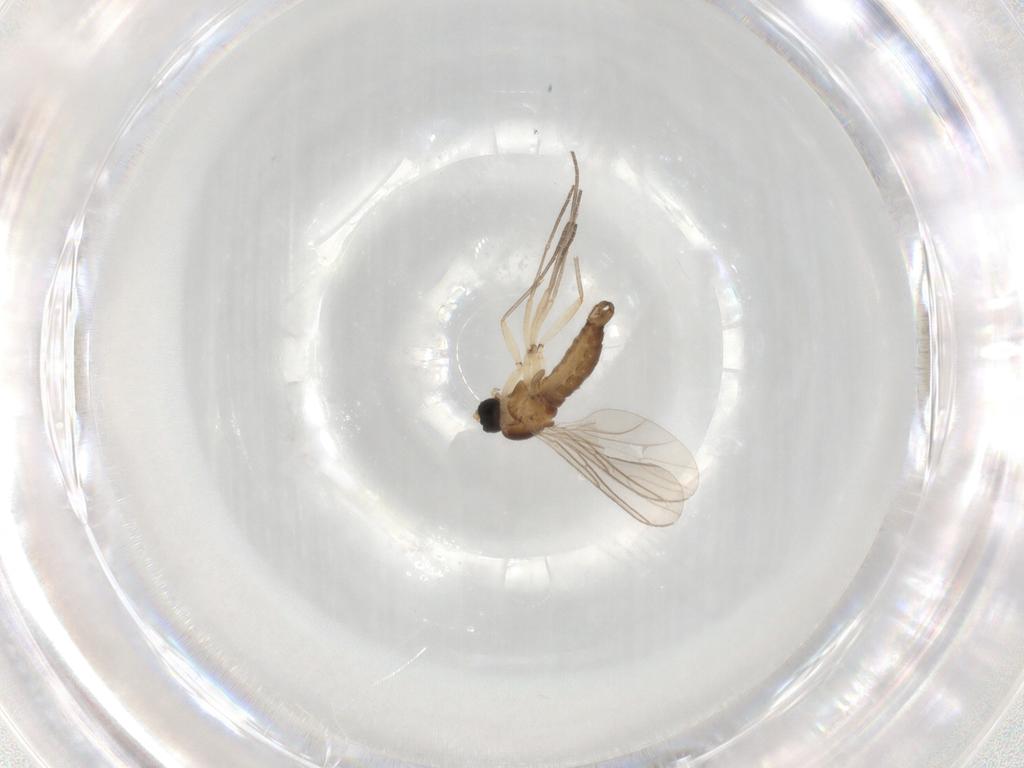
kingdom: Animalia
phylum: Arthropoda
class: Insecta
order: Diptera
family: Sciaridae
